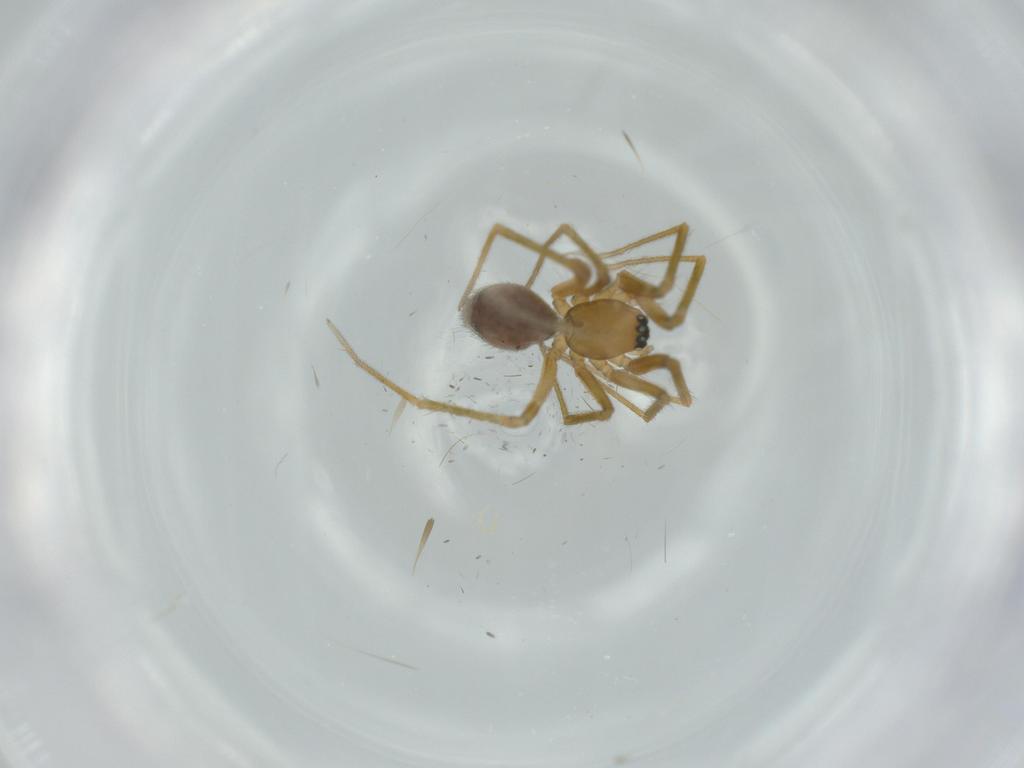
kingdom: Animalia
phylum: Arthropoda
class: Arachnida
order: Araneae
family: Linyphiidae
